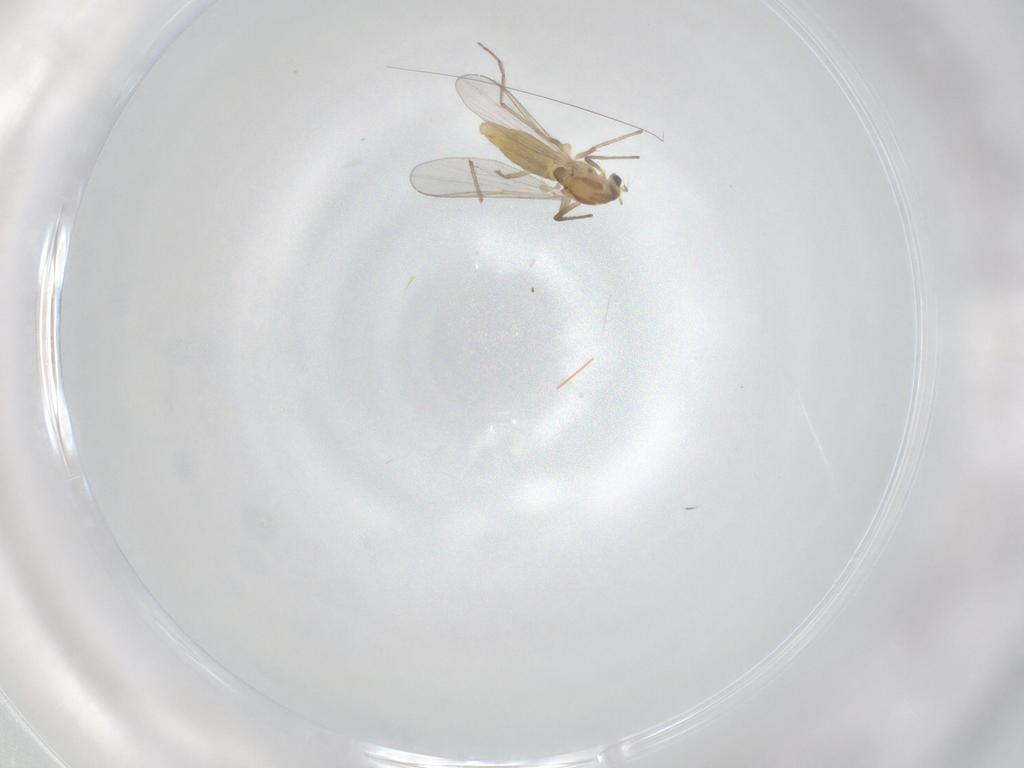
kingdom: Animalia
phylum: Arthropoda
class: Insecta
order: Diptera
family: Chironomidae
